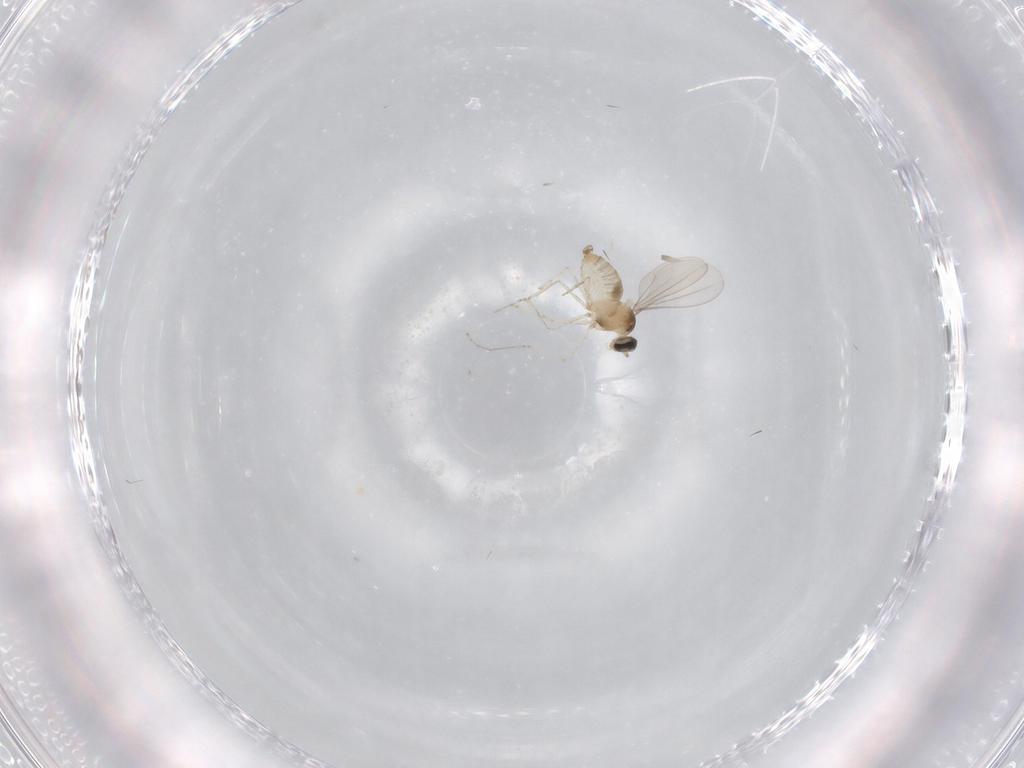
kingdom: Animalia
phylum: Arthropoda
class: Insecta
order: Diptera
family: Cecidomyiidae
